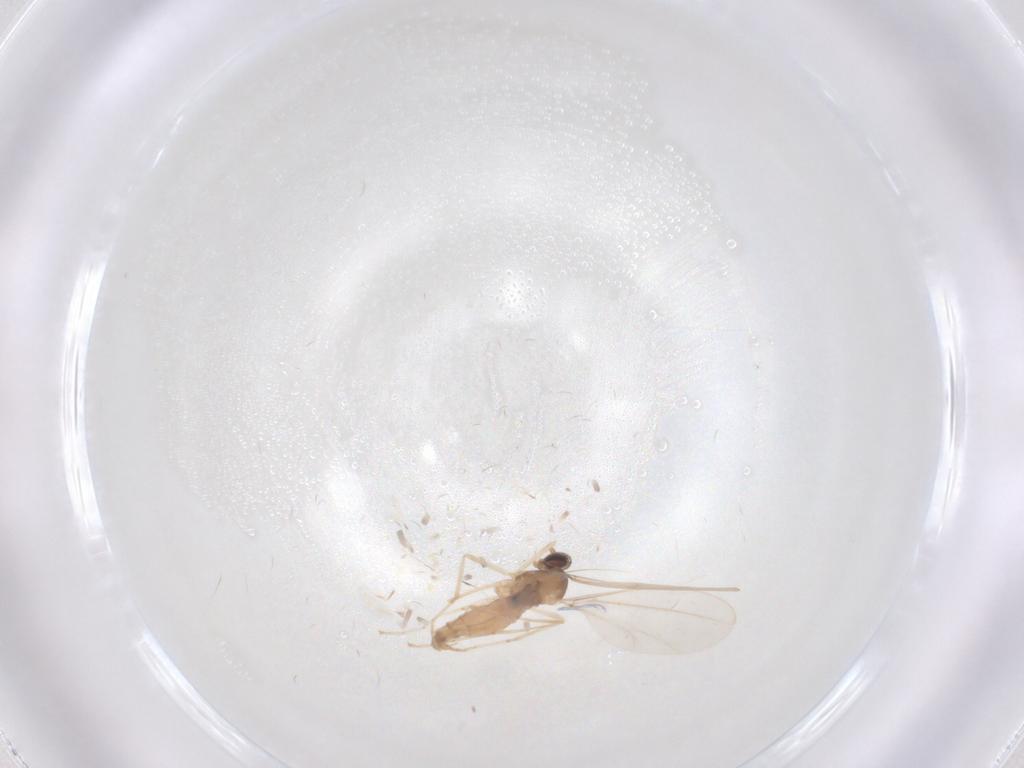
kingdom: Animalia
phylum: Arthropoda
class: Insecta
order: Diptera
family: Cecidomyiidae
